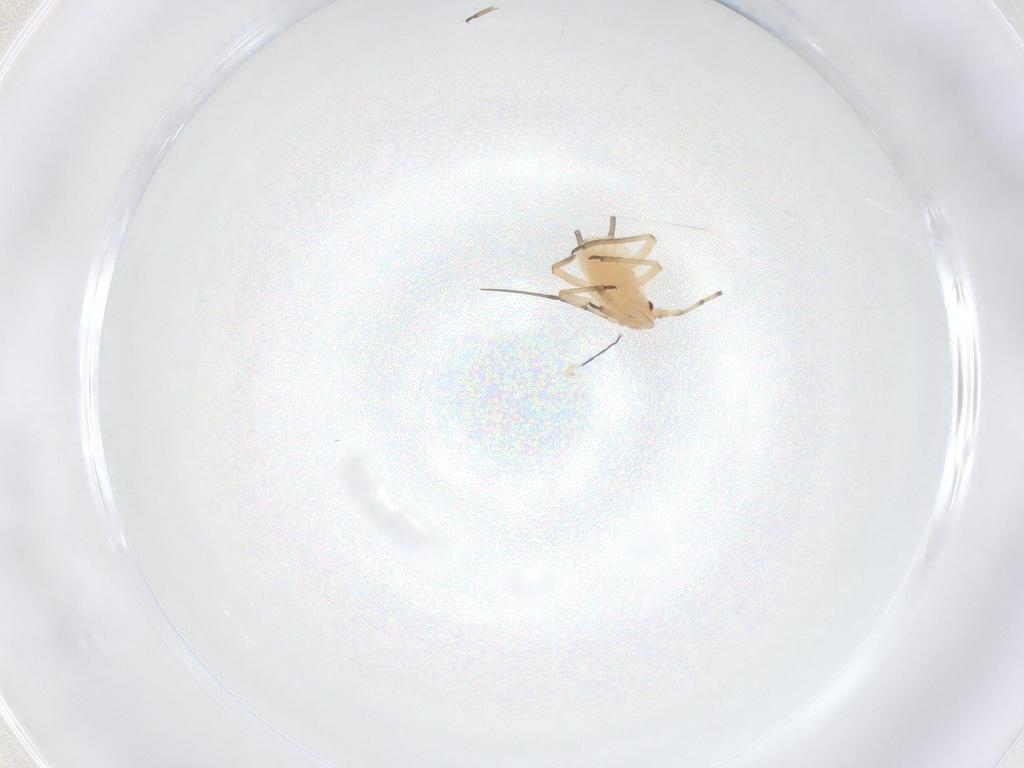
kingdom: Animalia
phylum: Arthropoda
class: Insecta
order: Hemiptera
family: Aphididae
